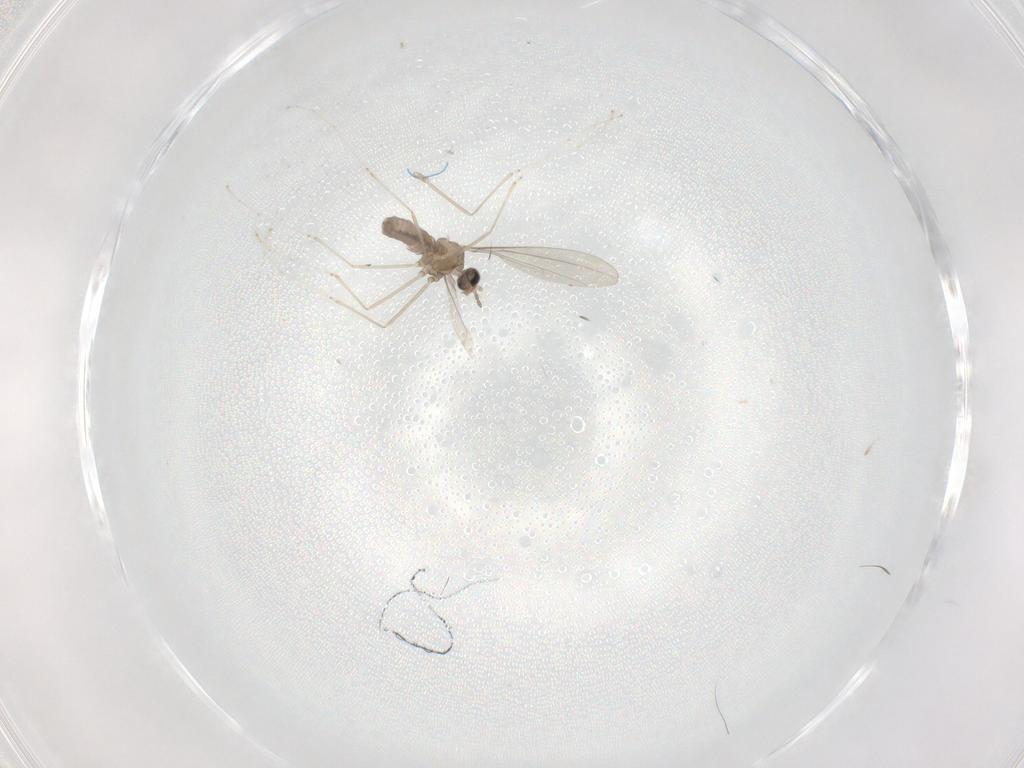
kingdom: Animalia
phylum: Arthropoda
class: Insecta
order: Diptera
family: Cecidomyiidae
